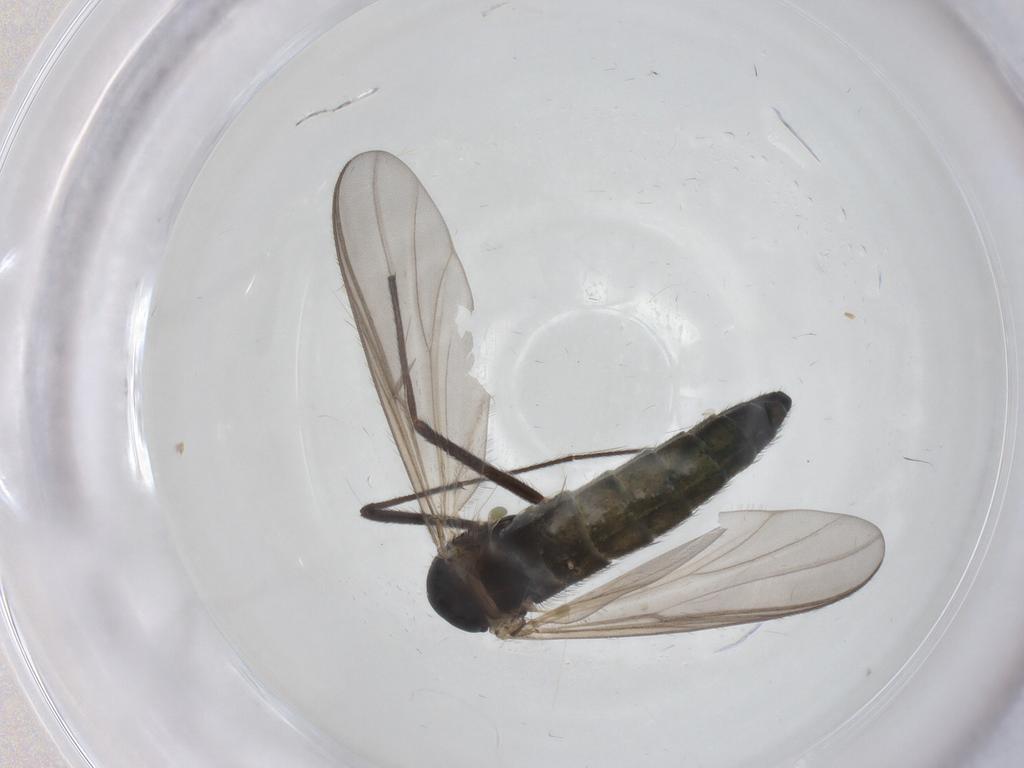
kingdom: Animalia
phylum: Arthropoda
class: Insecta
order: Diptera
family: Chironomidae
